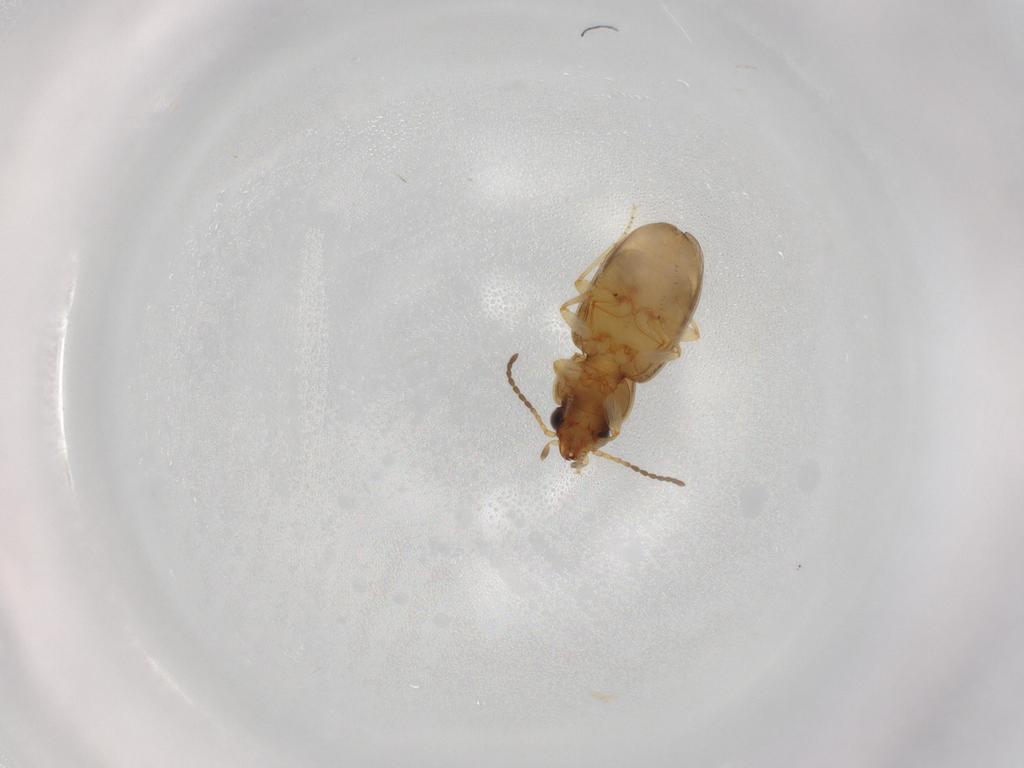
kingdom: Animalia
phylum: Arthropoda
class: Insecta
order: Coleoptera
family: Carabidae
